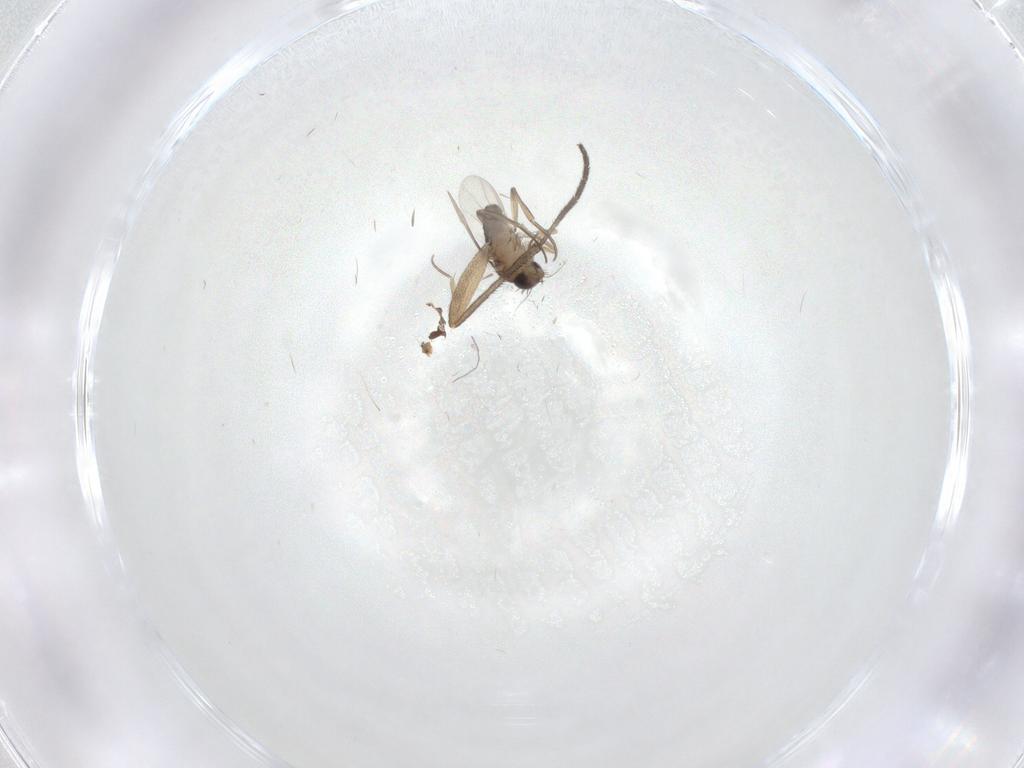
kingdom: Animalia
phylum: Arthropoda
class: Insecta
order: Diptera
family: Phoridae
